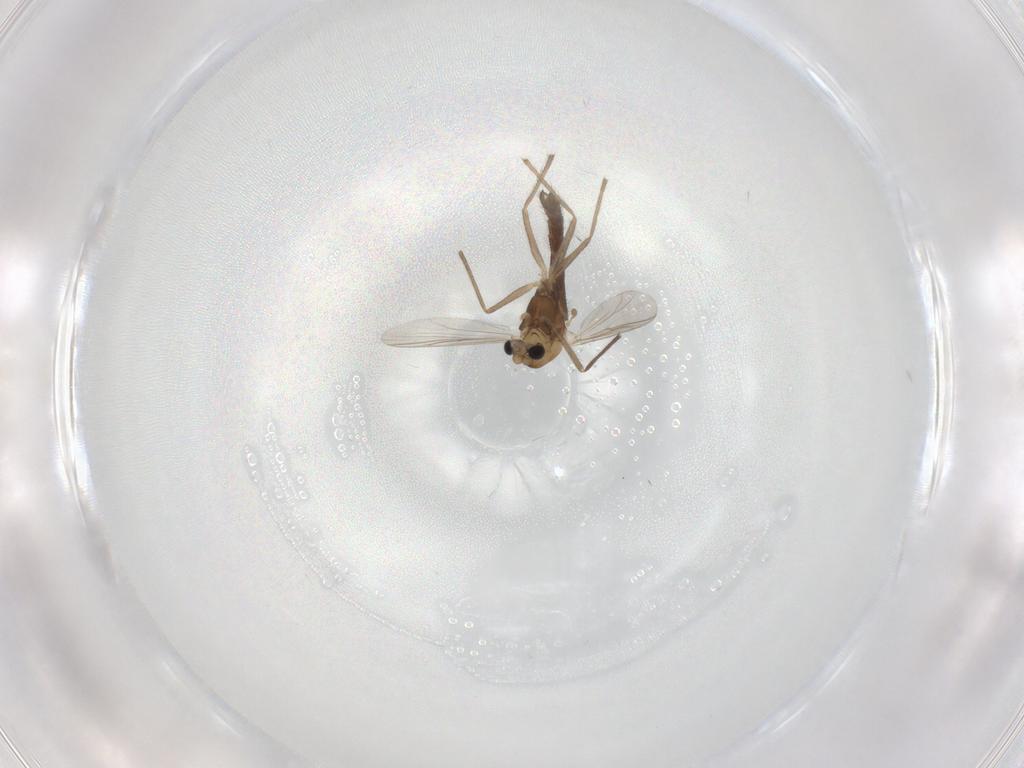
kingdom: Animalia
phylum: Arthropoda
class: Insecta
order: Diptera
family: Chironomidae
